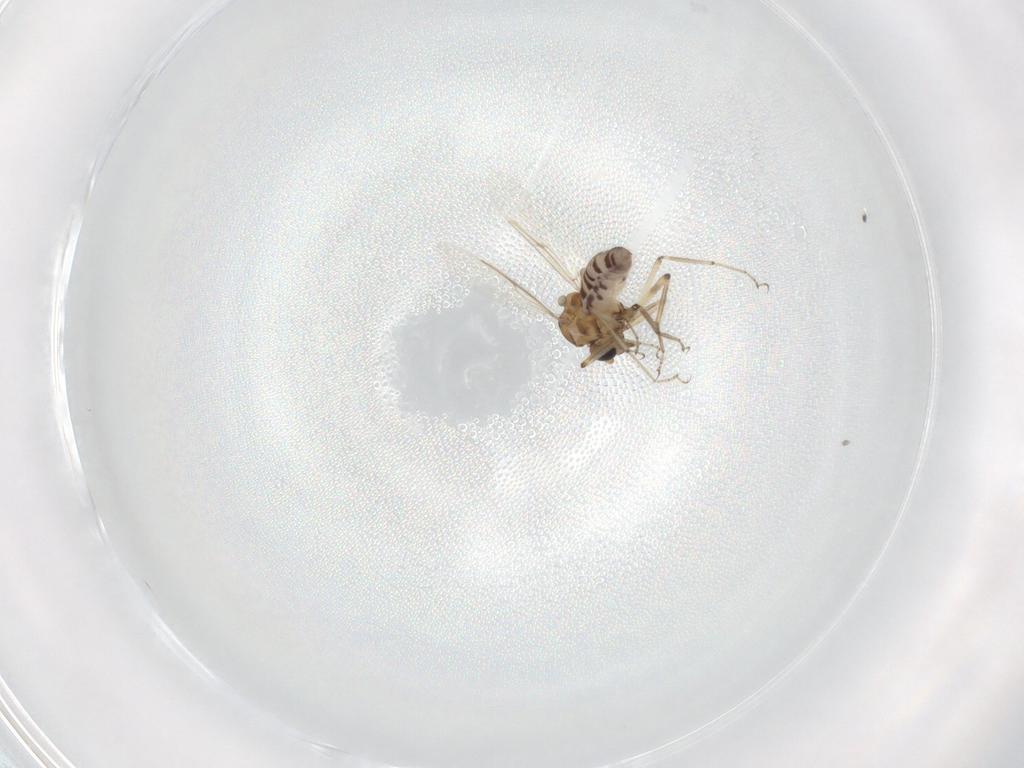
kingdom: Animalia
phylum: Arthropoda
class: Insecta
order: Diptera
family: Ceratopogonidae
